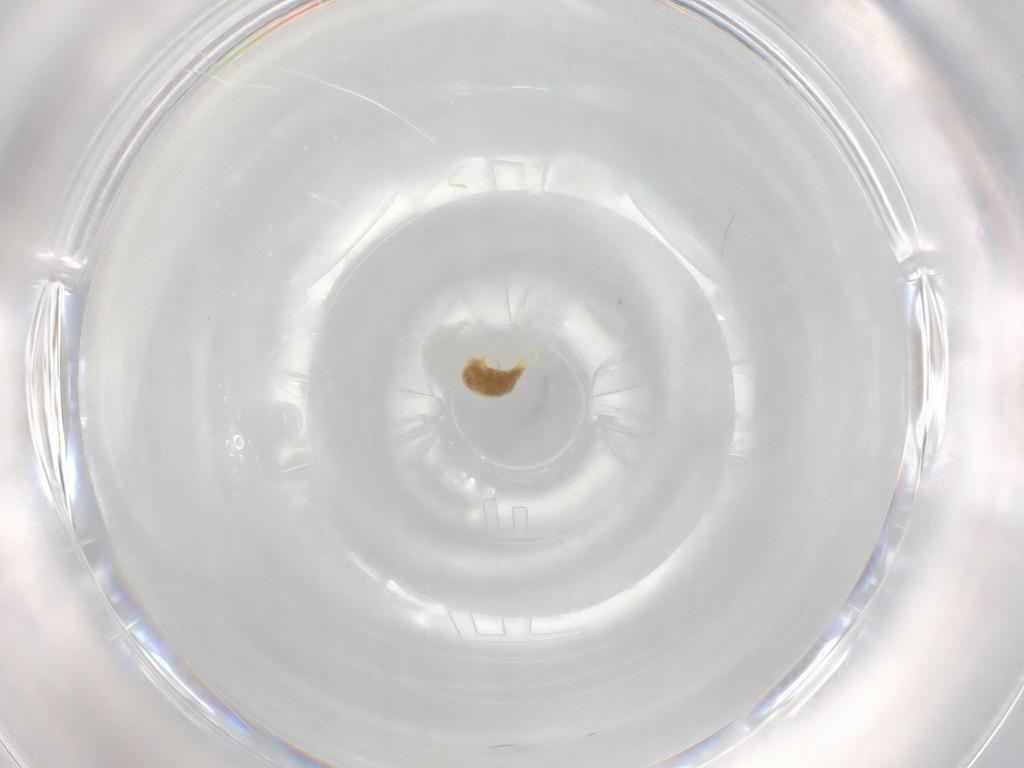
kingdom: Animalia
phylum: Arthropoda
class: Arachnida
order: Trombidiformes
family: Tetranychidae
